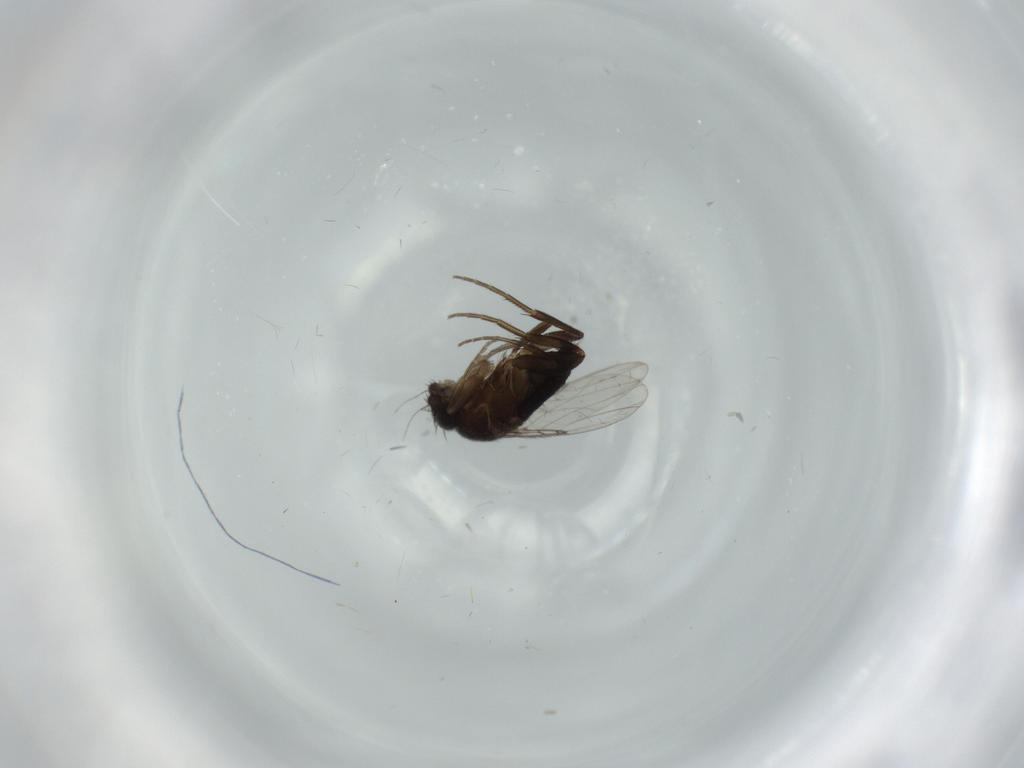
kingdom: Animalia
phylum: Arthropoda
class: Insecta
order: Diptera
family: Phoridae
